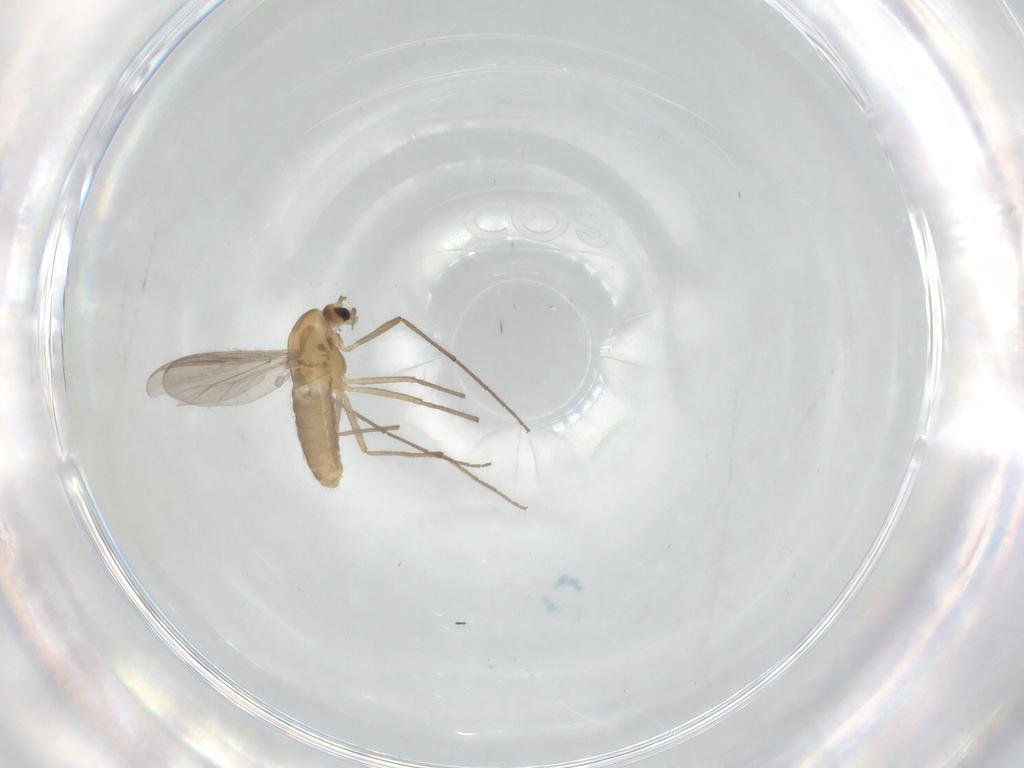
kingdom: Animalia
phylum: Arthropoda
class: Insecta
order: Diptera
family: Chironomidae
